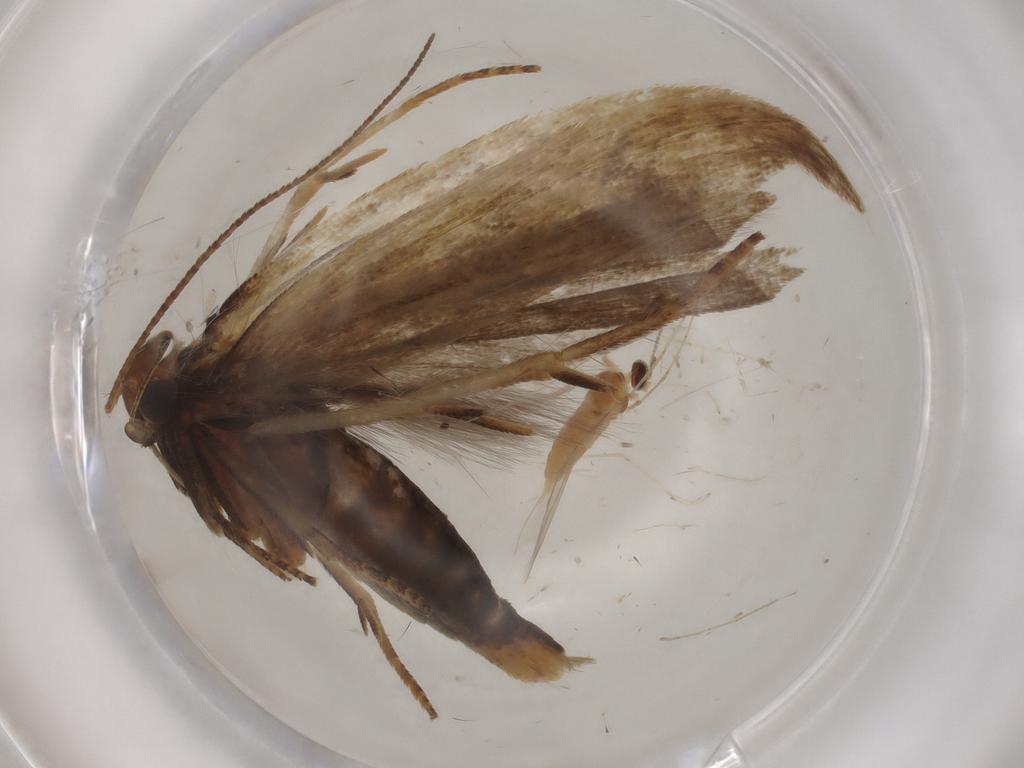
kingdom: Animalia
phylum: Arthropoda
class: Insecta
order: Lepidoptera
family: Gelechiidae
